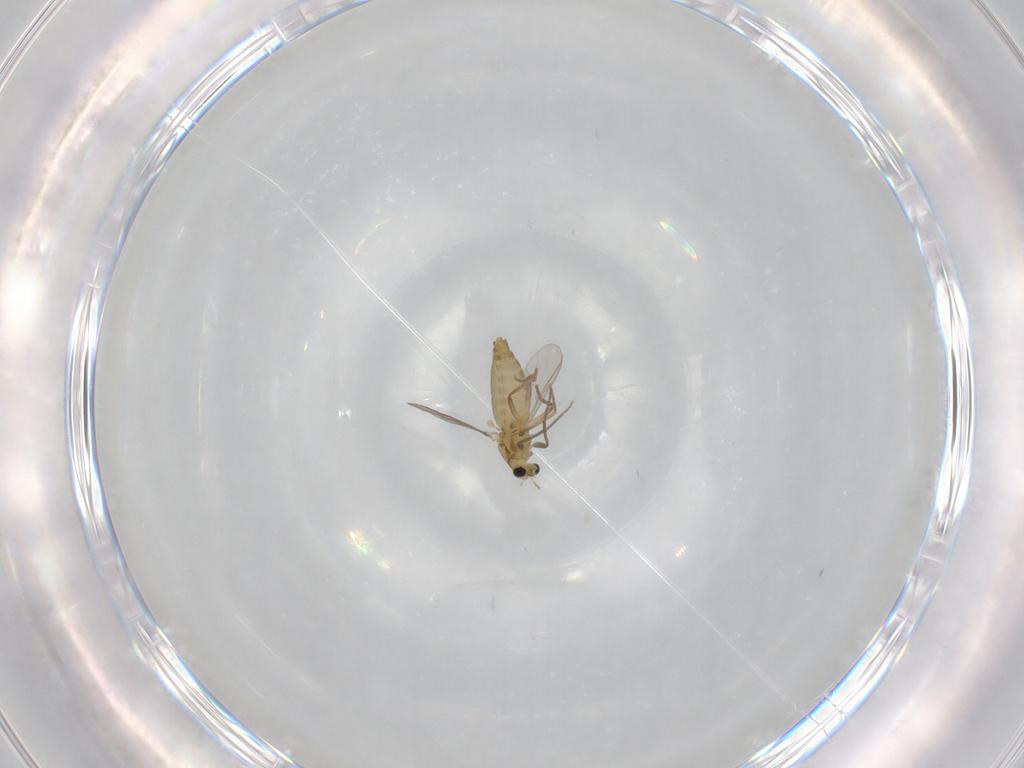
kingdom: Animalia
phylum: Arthropoda
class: Insecta
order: Diptera
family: Chironomidae
